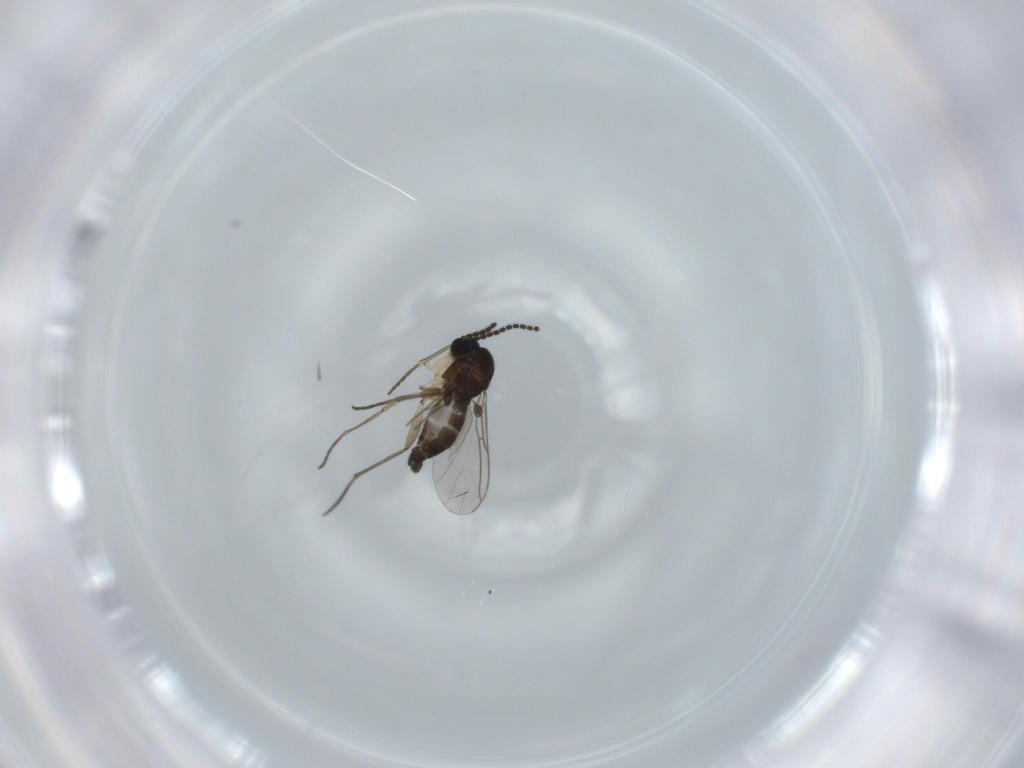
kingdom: Animalia
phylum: Arthropoda
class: Insecta
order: Diptera
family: Sciaridae
